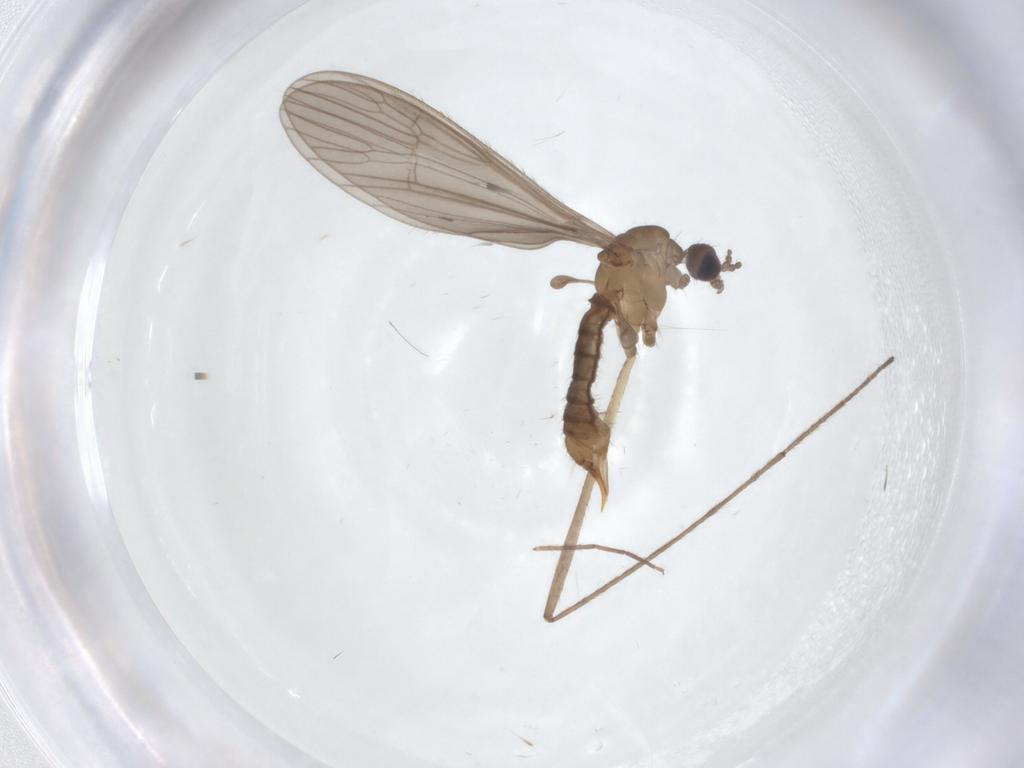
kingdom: Animalia
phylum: Arthropoda
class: Insecta
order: Diptera
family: Limoniidae
